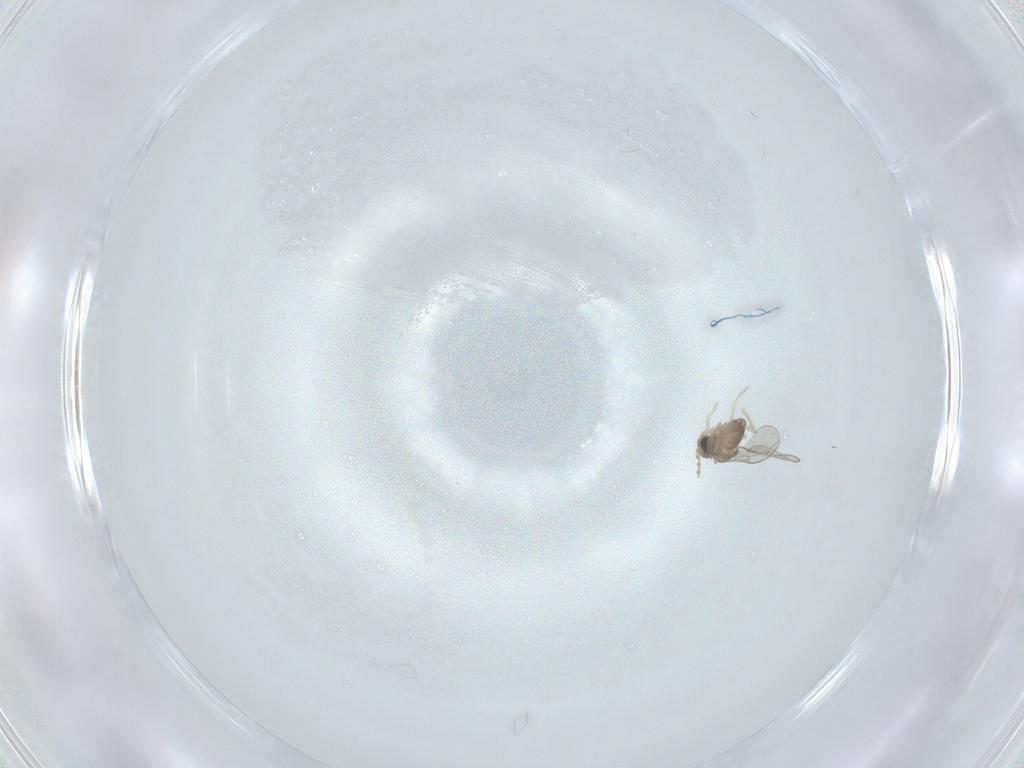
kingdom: Animalia
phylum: Arthropoda
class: Insecta
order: Diptera
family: Cecidomyiidae
